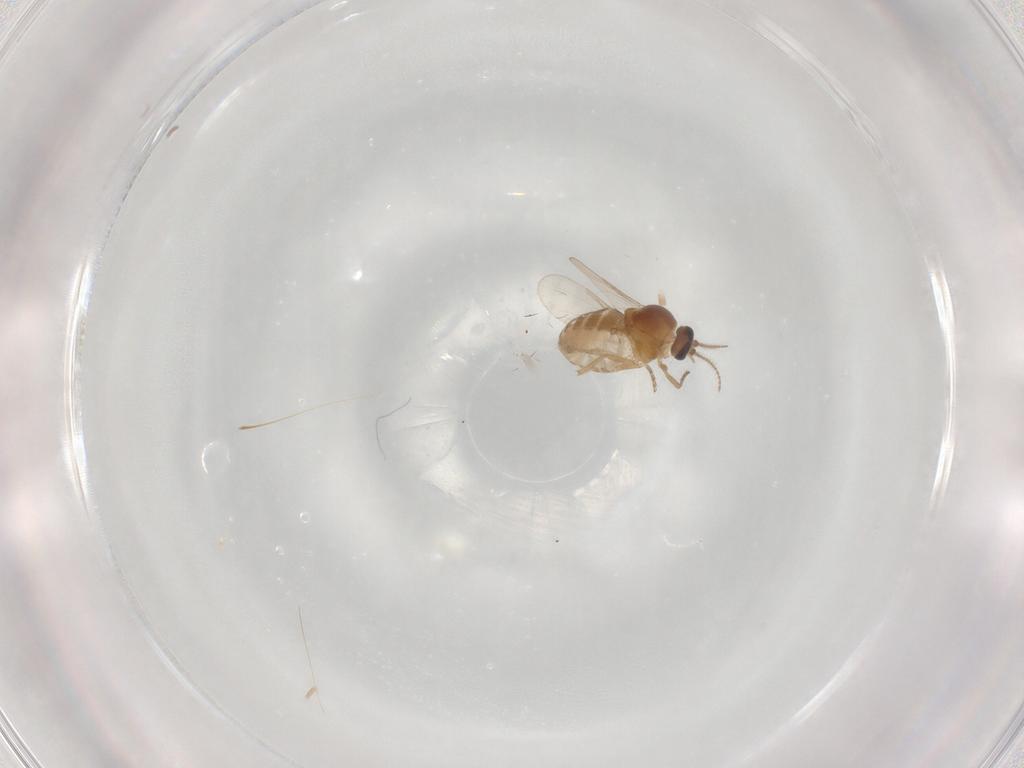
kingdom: Animalia
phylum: Arthropoda
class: Insecta
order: Diptera
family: Ceratopogonidae
